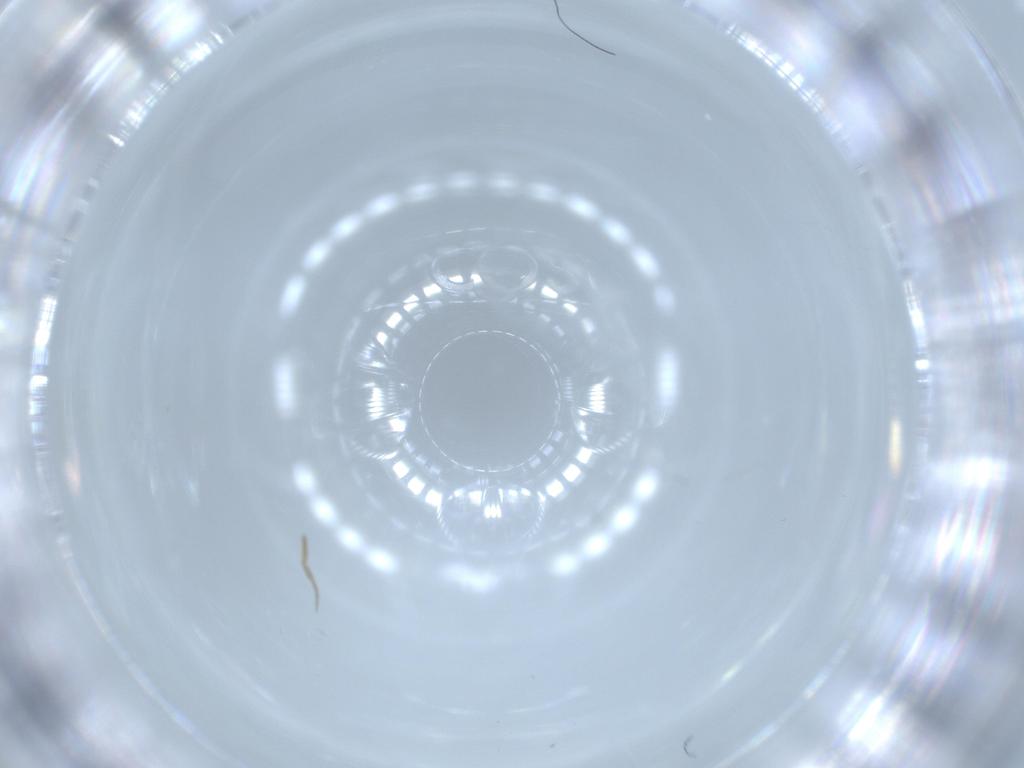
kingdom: Animalia
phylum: Arthropoda
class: Insecta
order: Diptera
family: Phoridae
